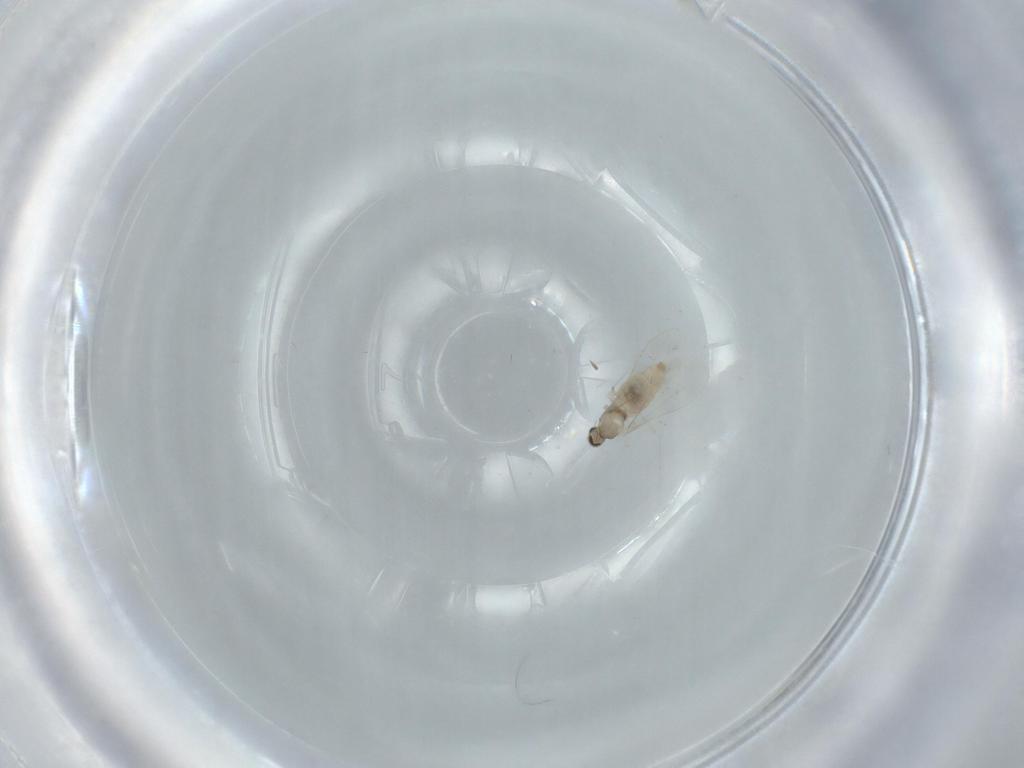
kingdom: Animalia
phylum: Arthropoda
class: Insecta
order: Diptera
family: Cecidomyiidae
